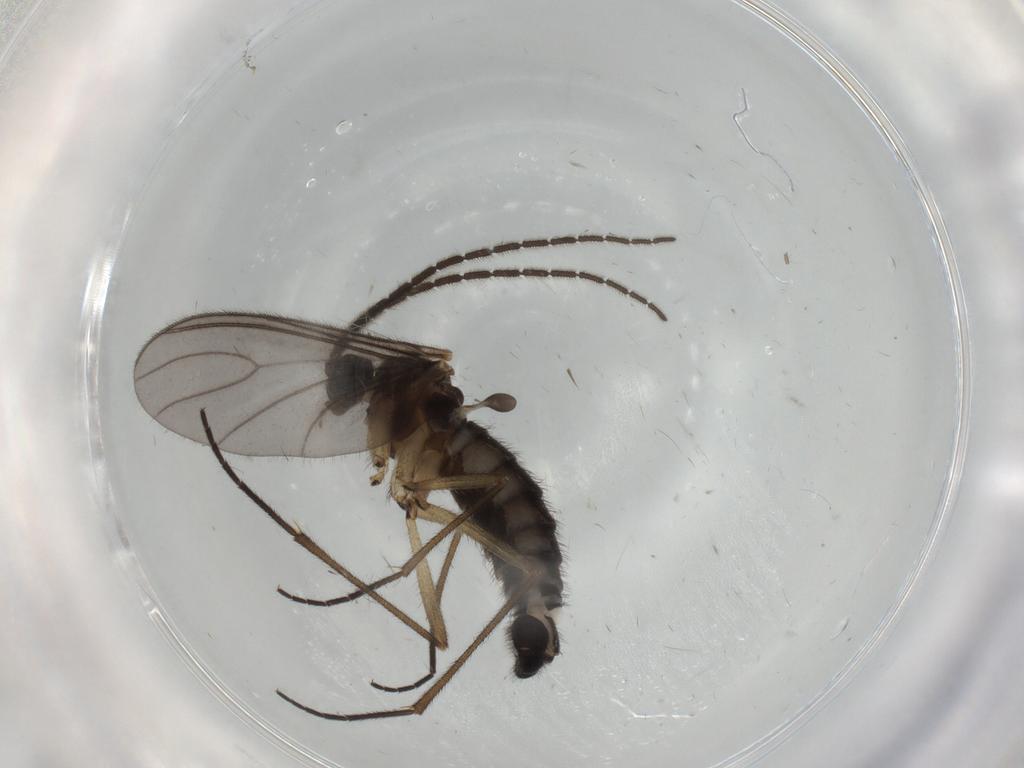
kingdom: Animalia
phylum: Arthropoda
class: Insecta
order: Diptera
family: Sciaridae
